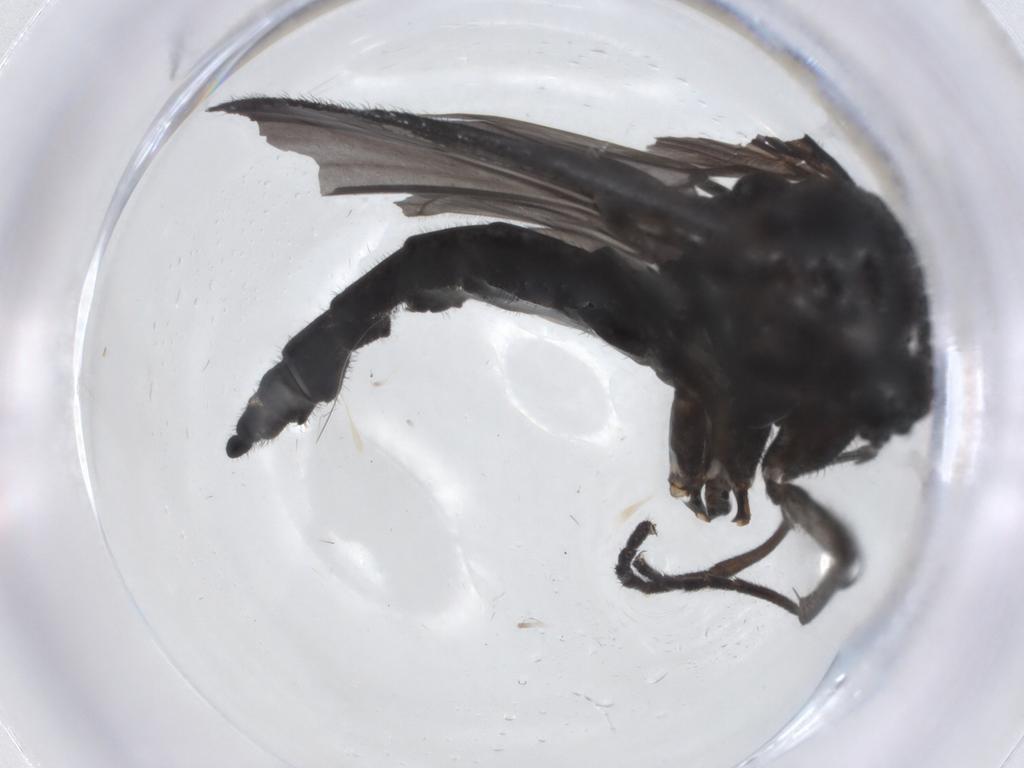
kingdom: Animalia
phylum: Arthropoda
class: Insecta
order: Diptera
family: Sciaridae
